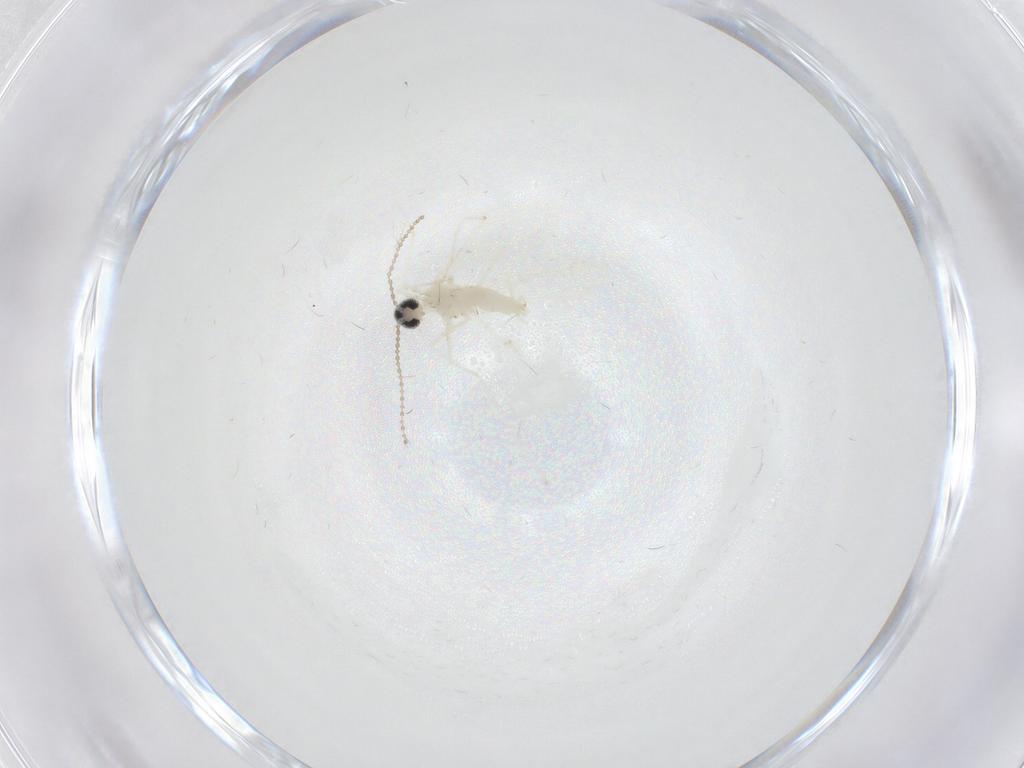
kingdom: Animalia
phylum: Arthropoda
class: Insecta
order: Diptera
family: Cecidomyiidae
